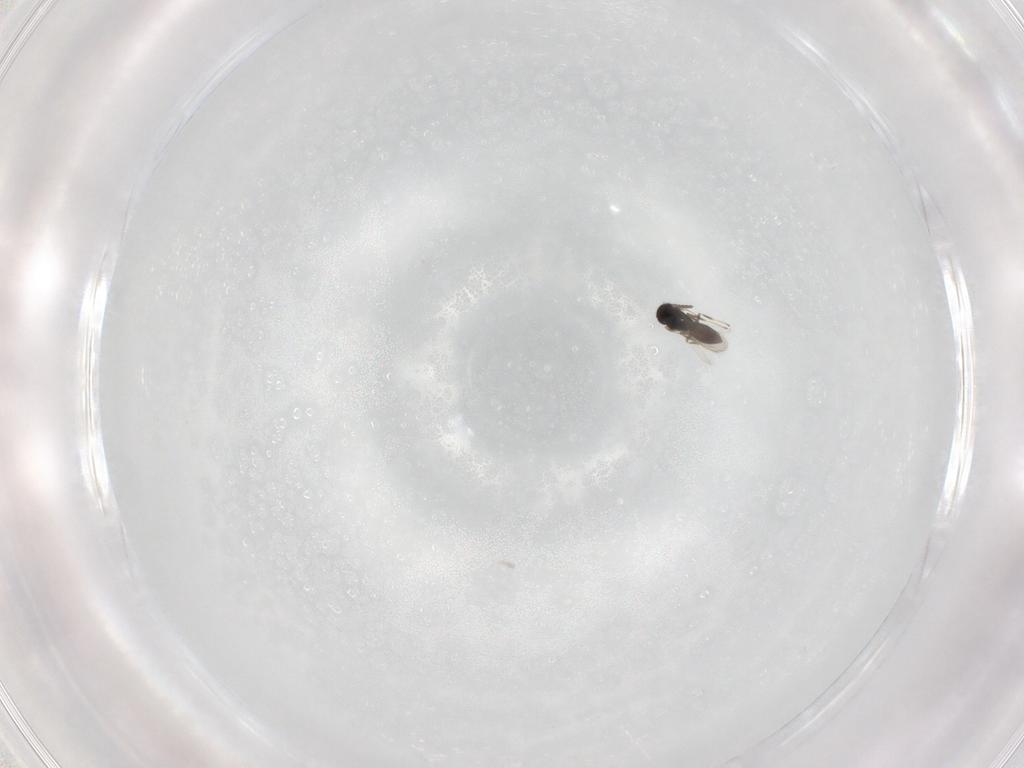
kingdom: Animalia
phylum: Arthropoda
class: Insecta
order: Hymenoptera
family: Scelionidae
